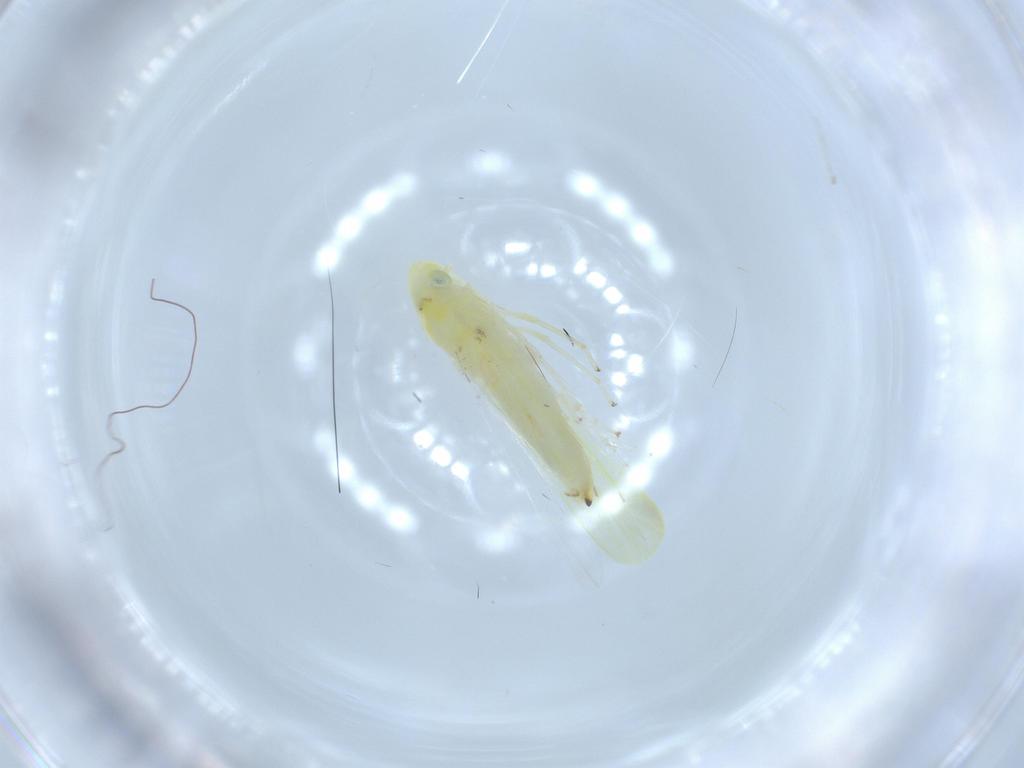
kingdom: Animalia
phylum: Arthropoda
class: Insecta
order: Hemiptera
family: Cicadellidae
